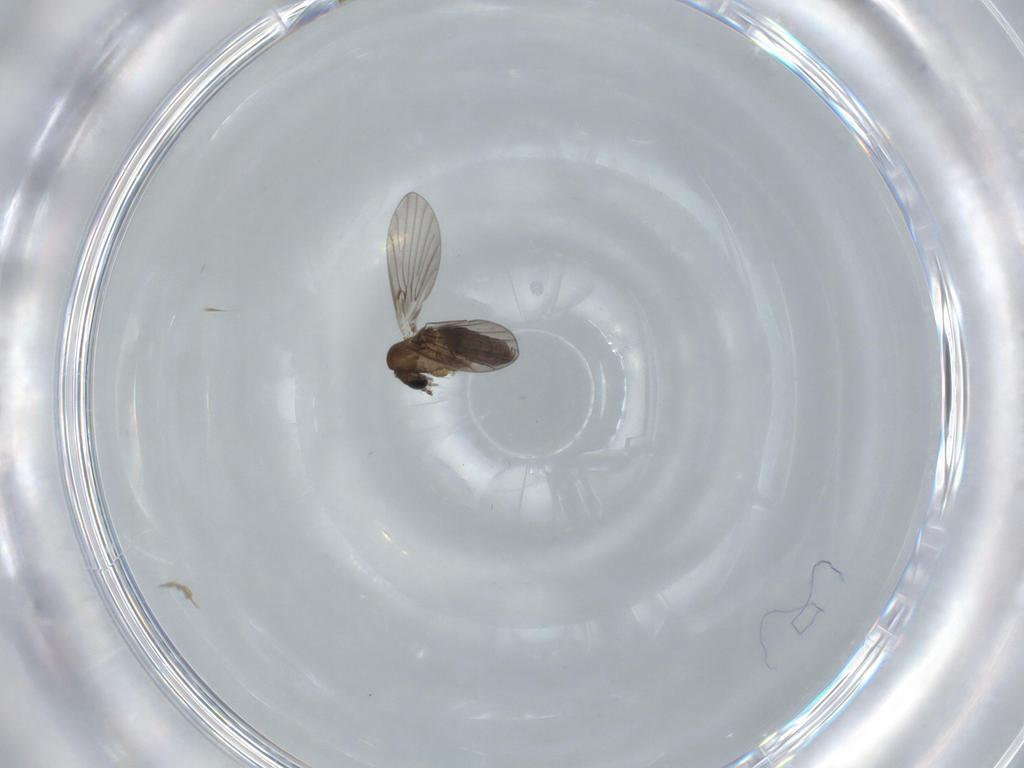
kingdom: Animalia
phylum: Arthropoda
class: Insecta
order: Diptera
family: Psychodidae
